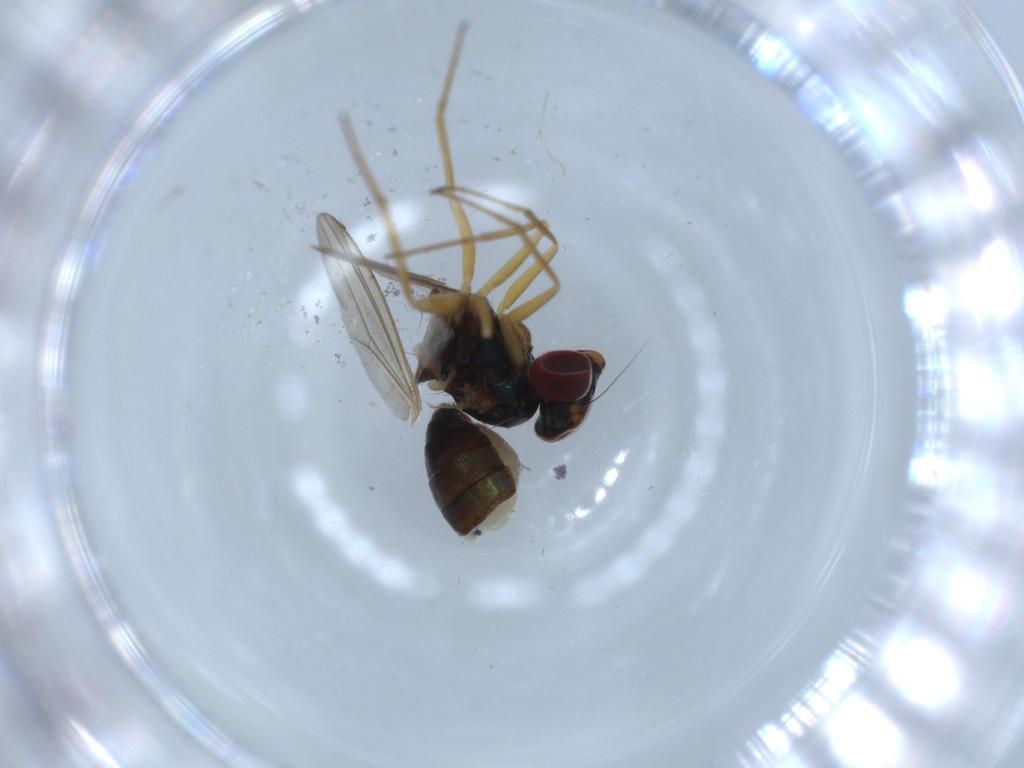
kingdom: Animalia
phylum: Arthropoda
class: Insecta
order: Diptera
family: Dolichopodidae
